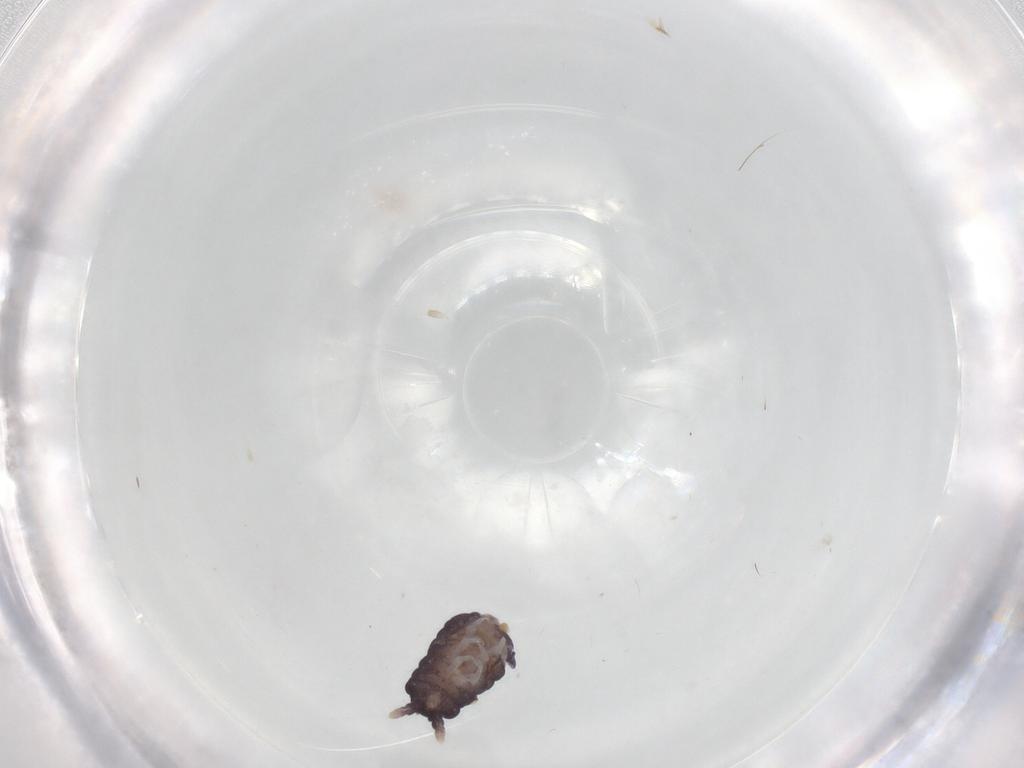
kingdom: Animalia
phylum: Arthropoda
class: Collembola
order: Poduromorpha
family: Neanuridae
